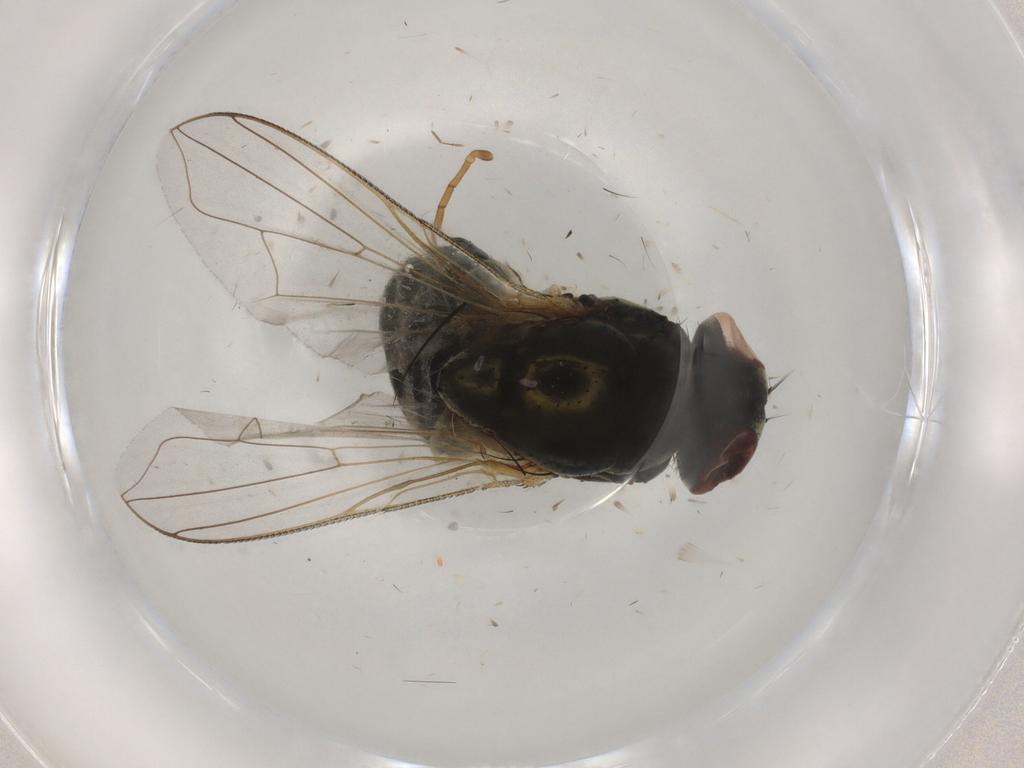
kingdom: Animalia
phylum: Arthropoda
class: Insecta
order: Diptera
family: Muscidae
